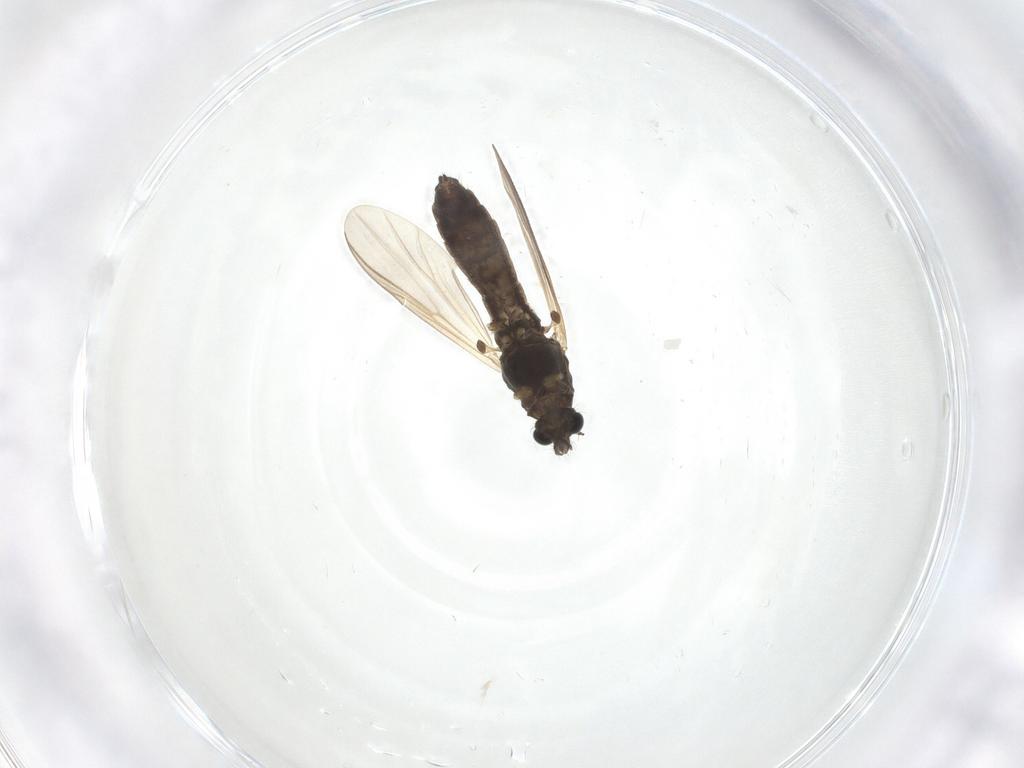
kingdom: Animalia
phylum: Arthropoda
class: Insecta
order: Diptera
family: Chironomidae
